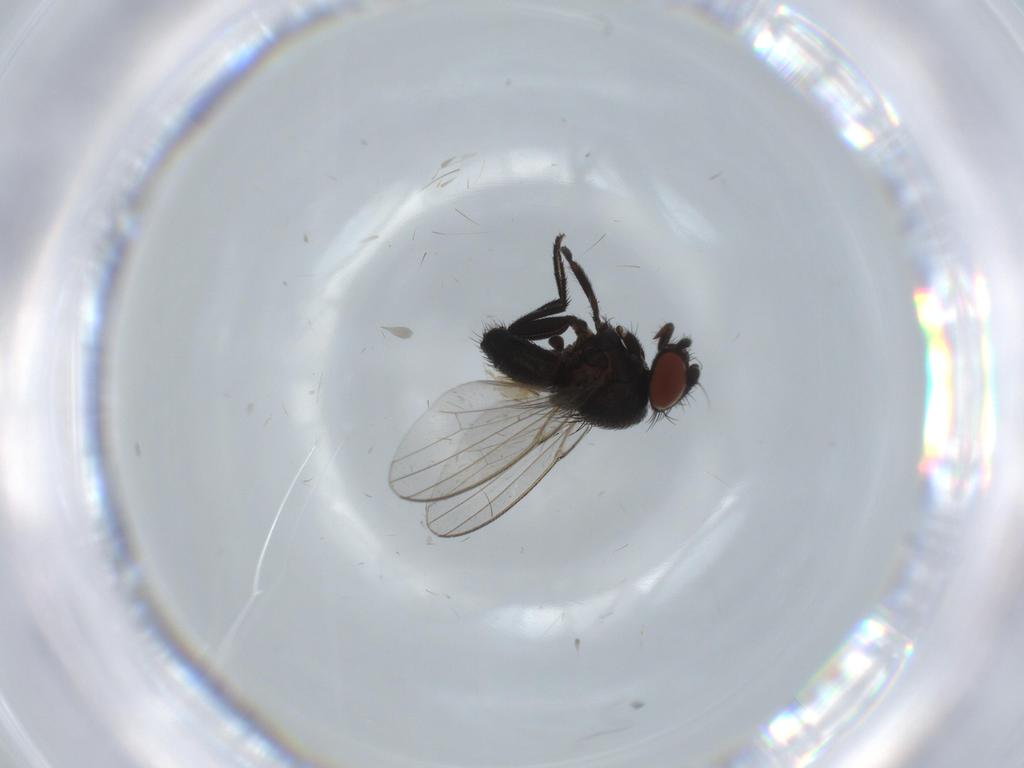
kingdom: Animalia
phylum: Arthropoda
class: Insecta
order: Diptera
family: Milichiidae
